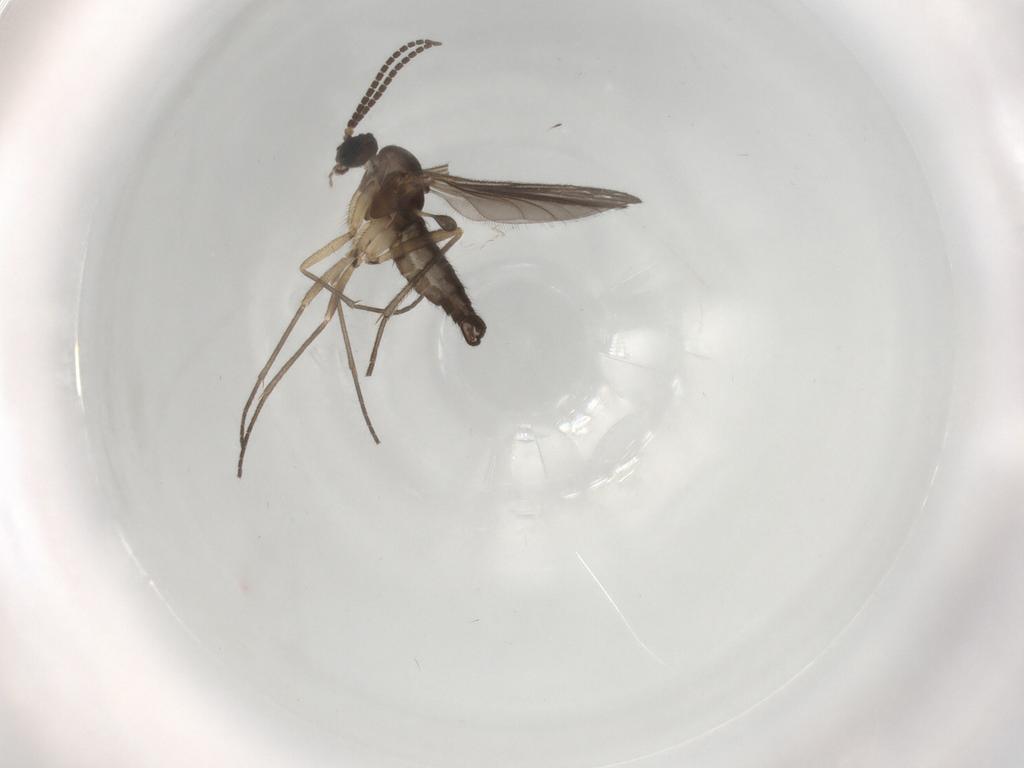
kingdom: Animalia
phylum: Arthropoda
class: Insecta
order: Diptera
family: Sciaridae
